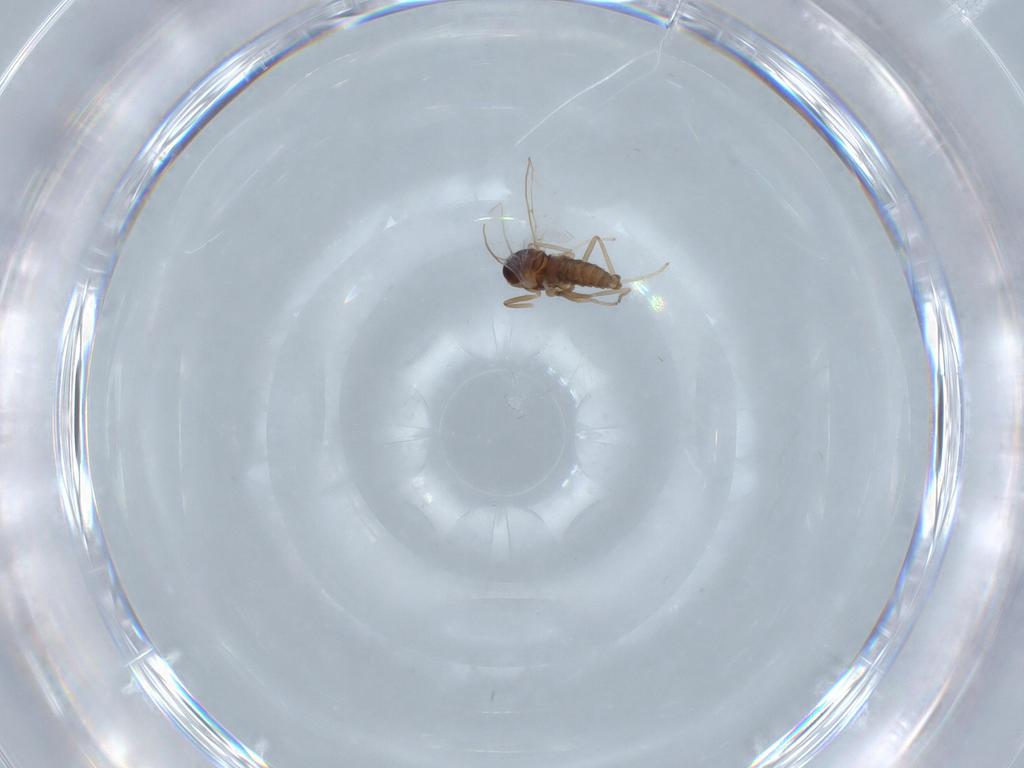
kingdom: Animalia
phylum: Arthropoda
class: Insecta
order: Diptera
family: Cecidomyiidae
